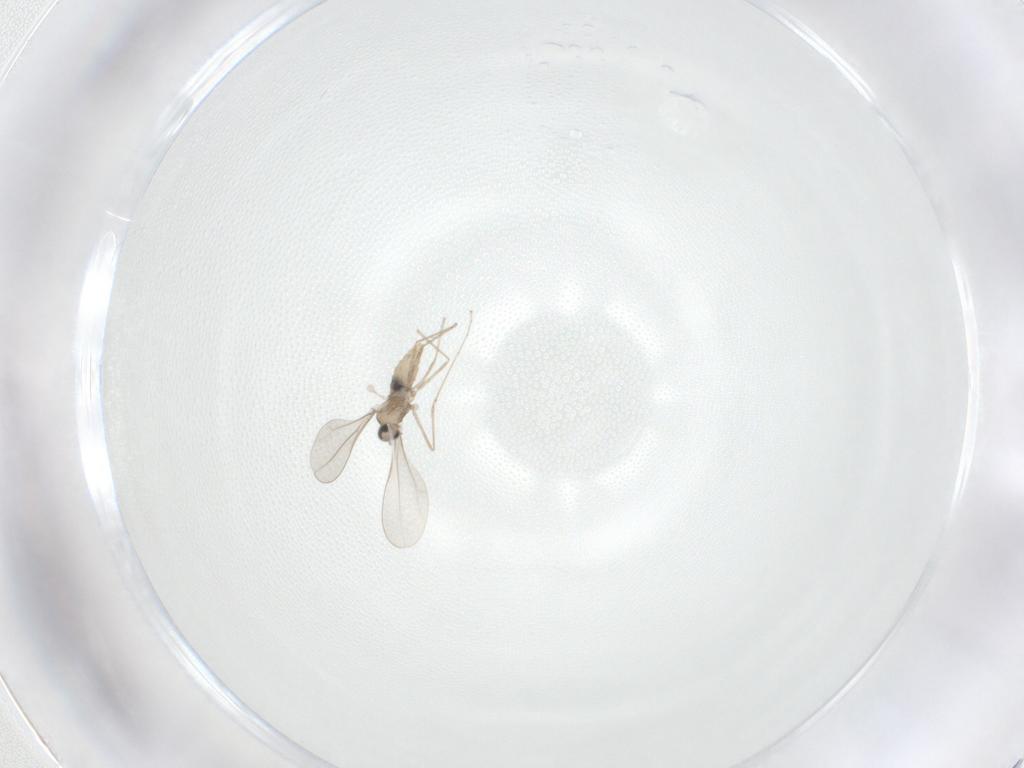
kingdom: Animalia
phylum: Arthropoda
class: Insecta
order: Diptera
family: Cecidomyiidae
